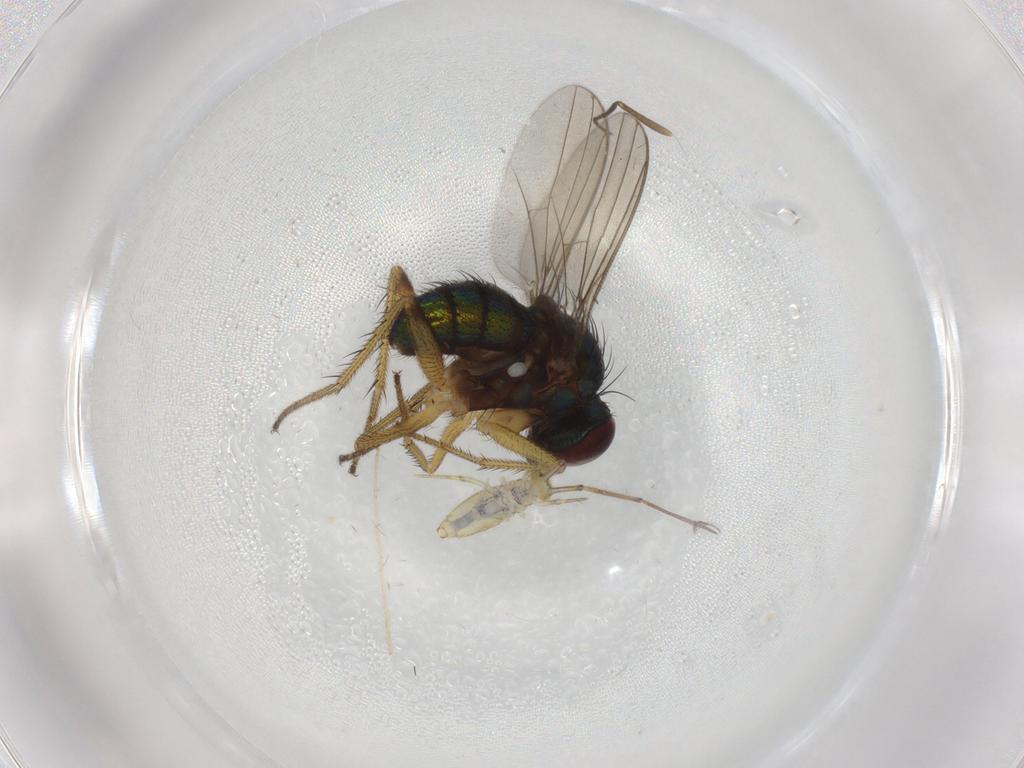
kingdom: Animalia
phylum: Arthropoda
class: Insecta
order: Diptera
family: Dolichopodidae
